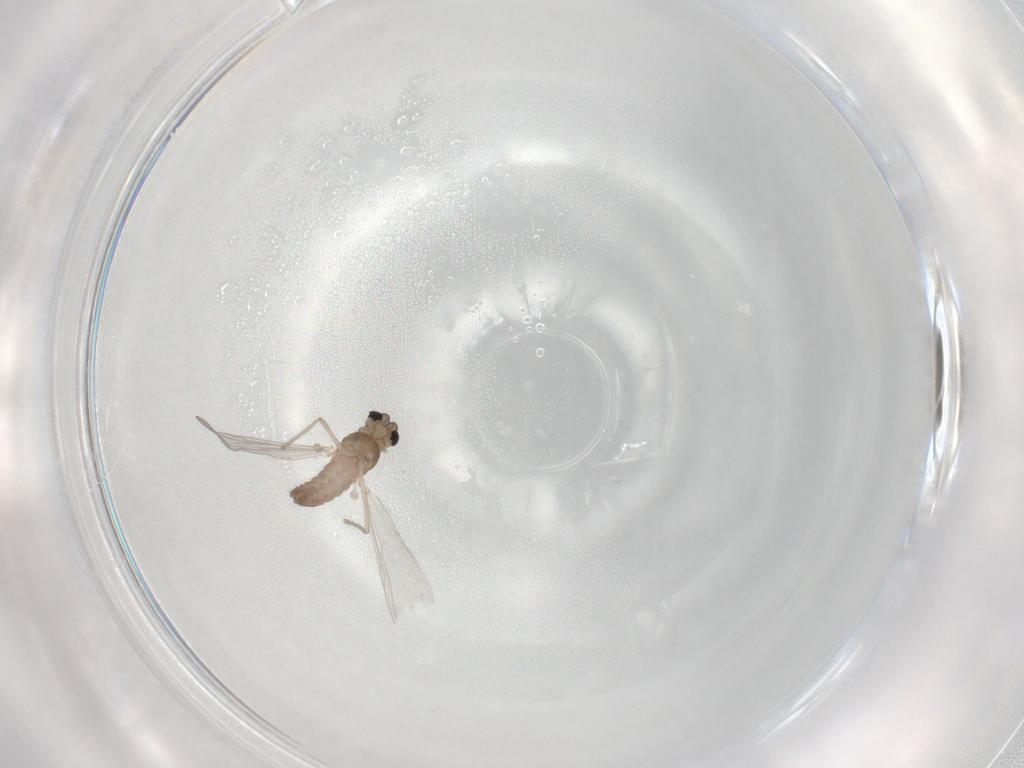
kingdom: Animalia
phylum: Arthropoda
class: Insecta
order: Diptera
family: Chironomidae
